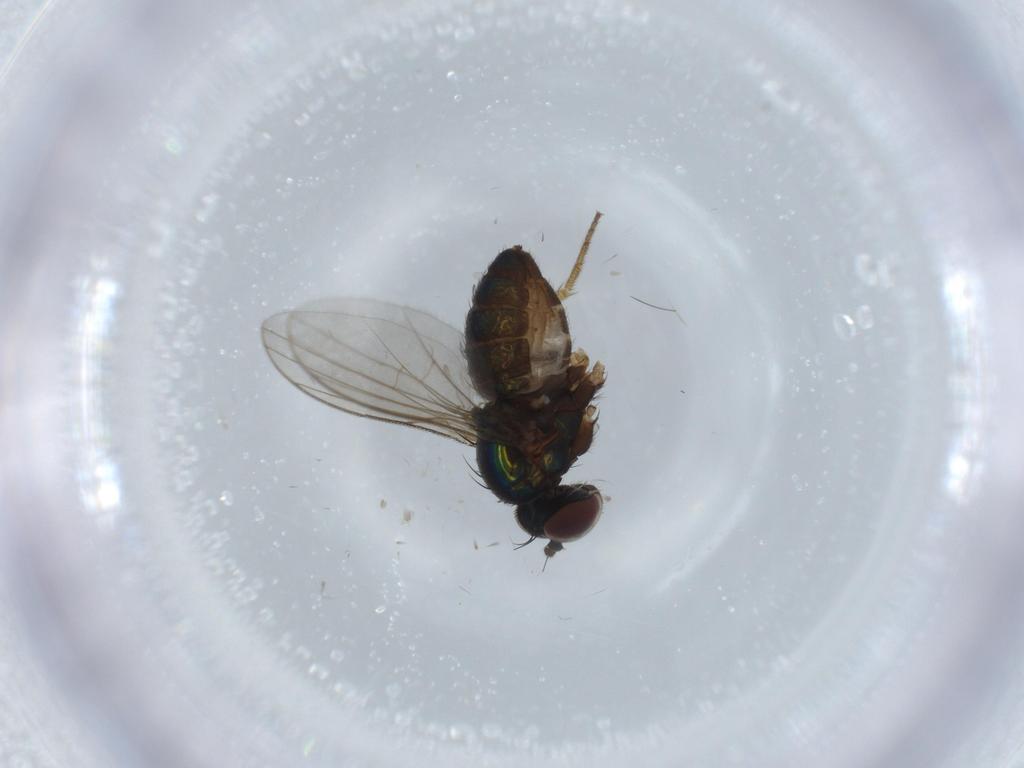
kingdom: Animalia
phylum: Arthropoda
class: Insecta
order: Diptera
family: Dolichopodidae
